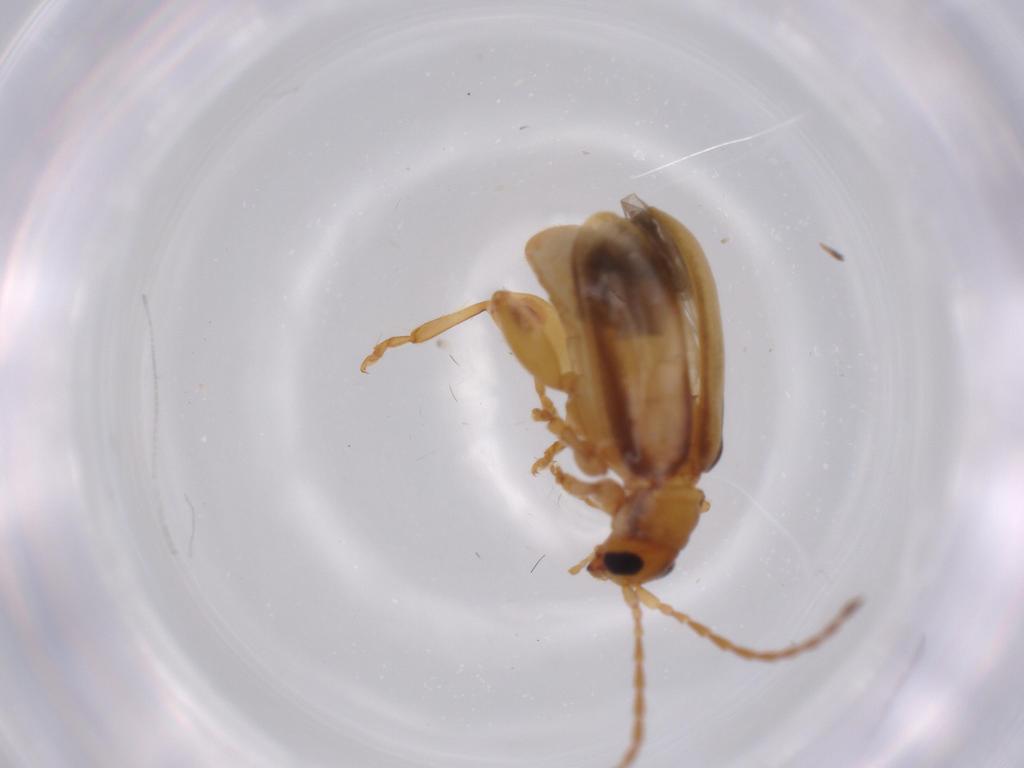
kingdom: Animalia
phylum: Arthropoda
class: Insecta
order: Coleoptera
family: Chrysomelidae
